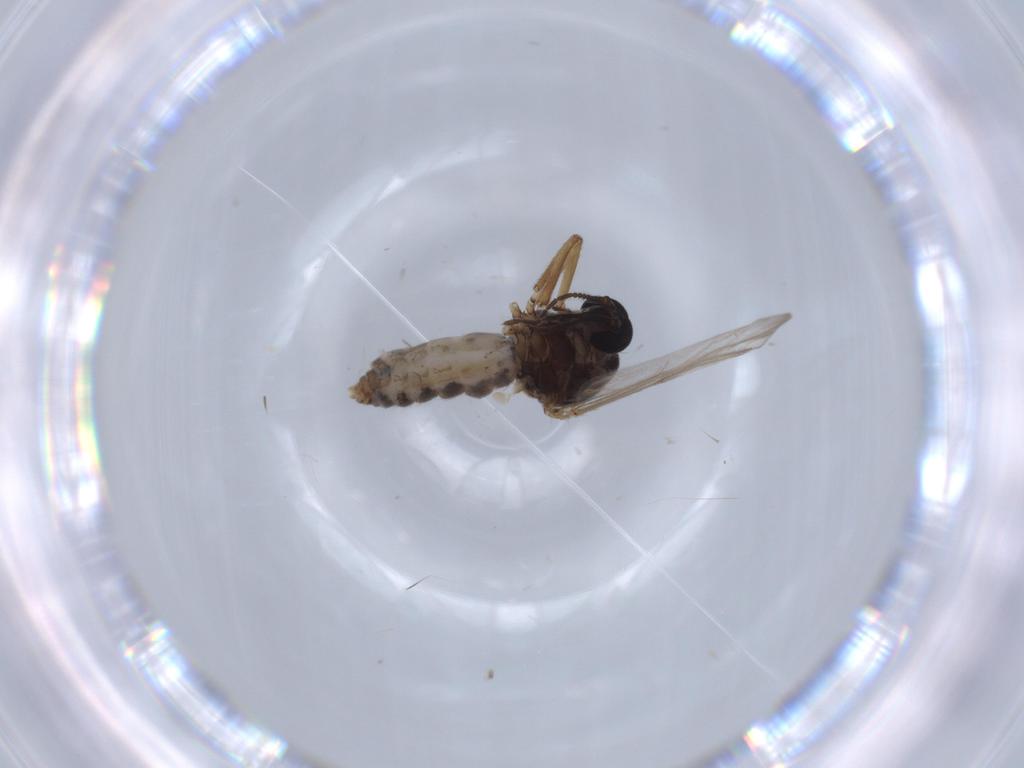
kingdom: Animalia
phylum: Arthropoda
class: Insecta
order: Diptera
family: Ceratopogonidae
